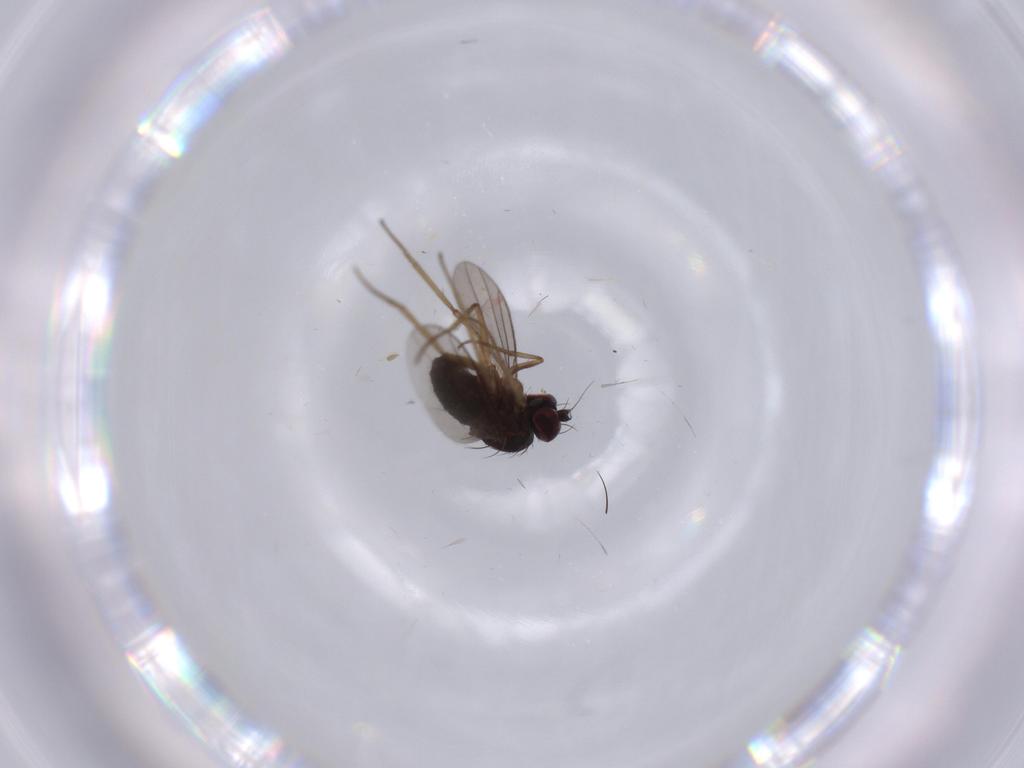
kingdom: Animalia
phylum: Arthropoda
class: Insecta
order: Diptera
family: Dolichopodidae
